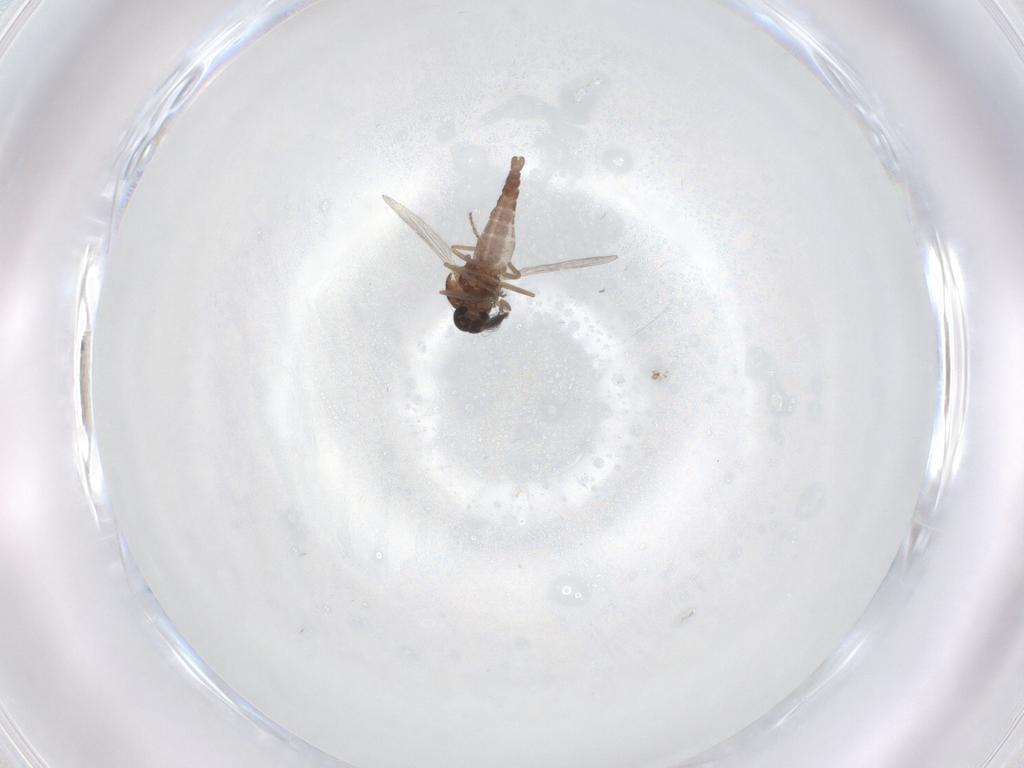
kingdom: Animalia
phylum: Arthropoda
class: Insecta
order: Diptera
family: Ceratopogonidae
